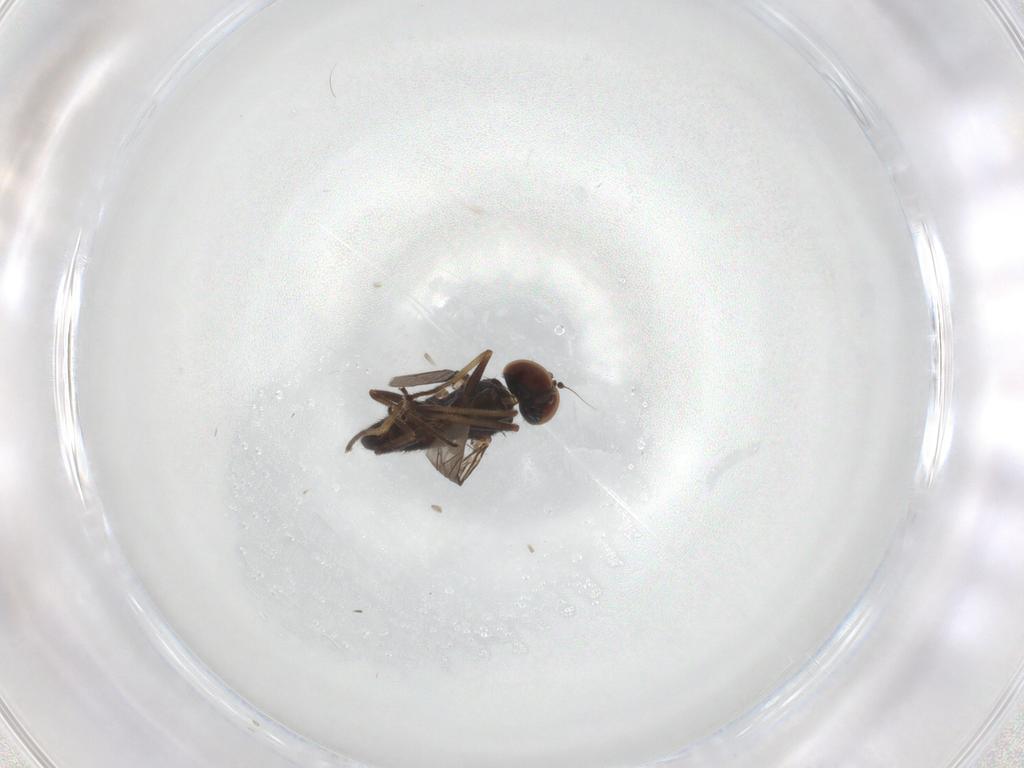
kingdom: Animalia
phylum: Arthropoda
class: Insecta
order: Diptera
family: Dolichopodidae
